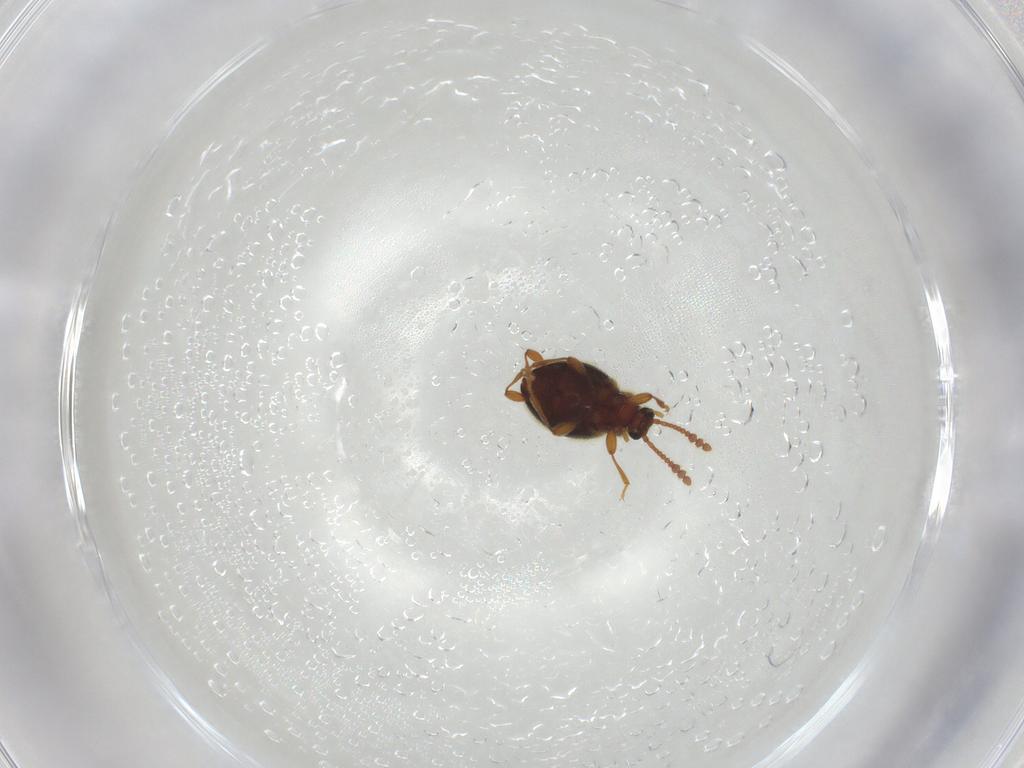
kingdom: Animalia
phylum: Arthropoda
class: Insecta
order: Coleoptera
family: Staphylinidae
